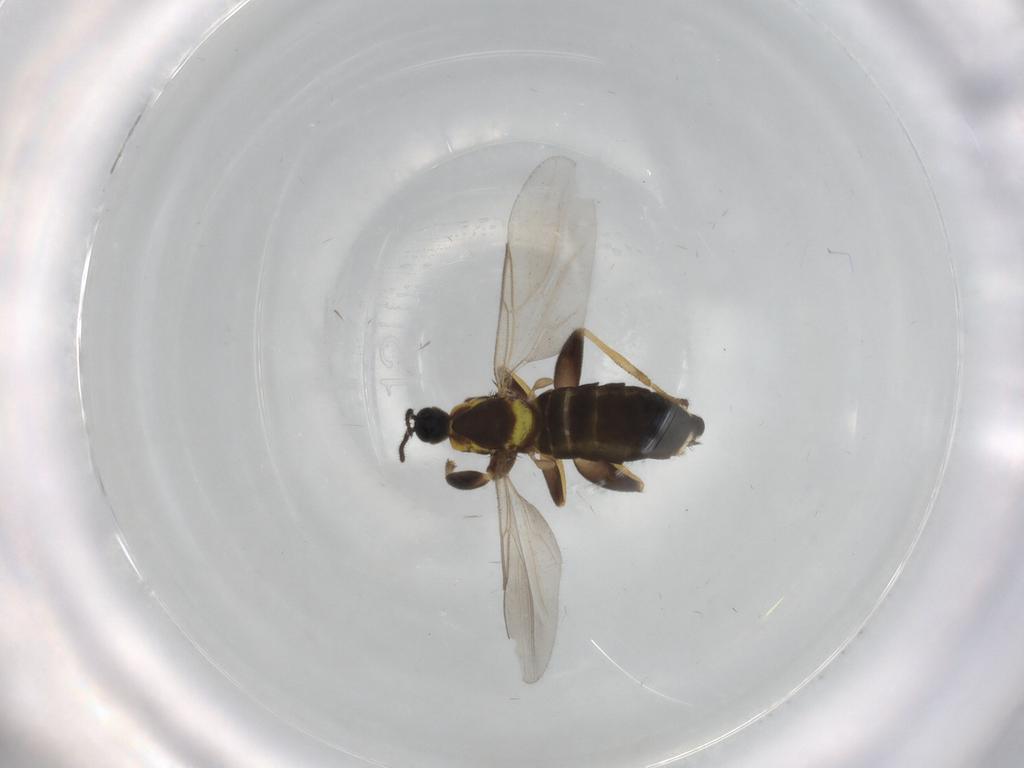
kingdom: Animalia
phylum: Arthropoda
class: Insecta
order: Diptera
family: Scatopsidae
